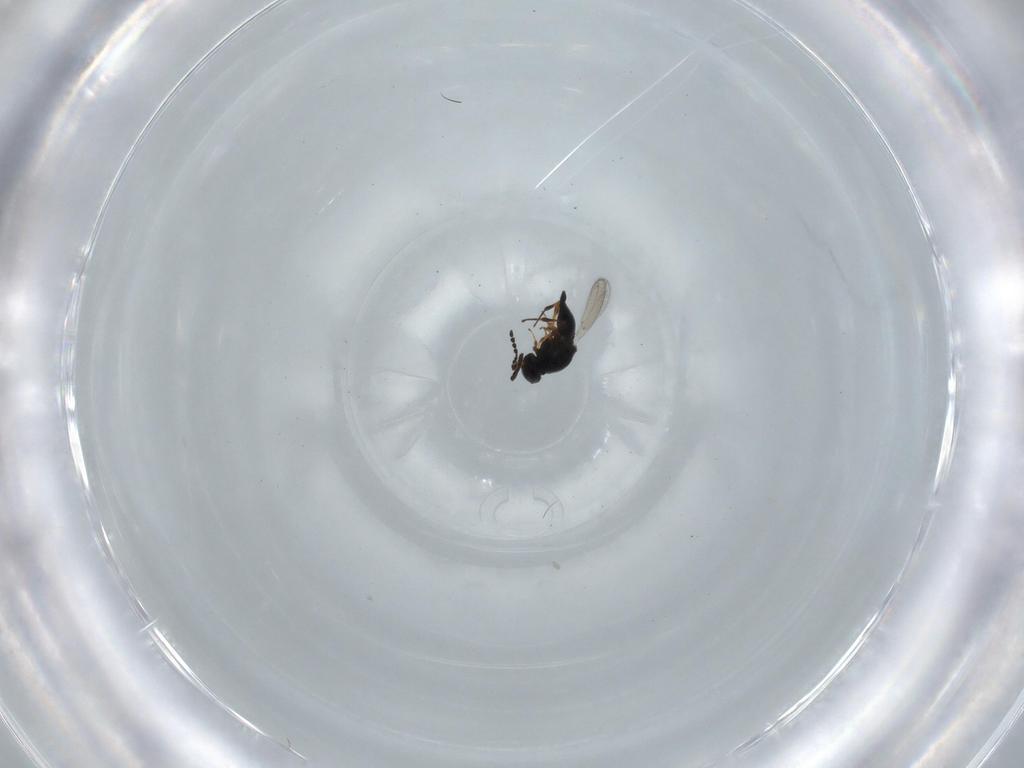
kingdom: Animalia
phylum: Arthropoda
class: Insecta
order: Hymenoptera
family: Platygastridae
